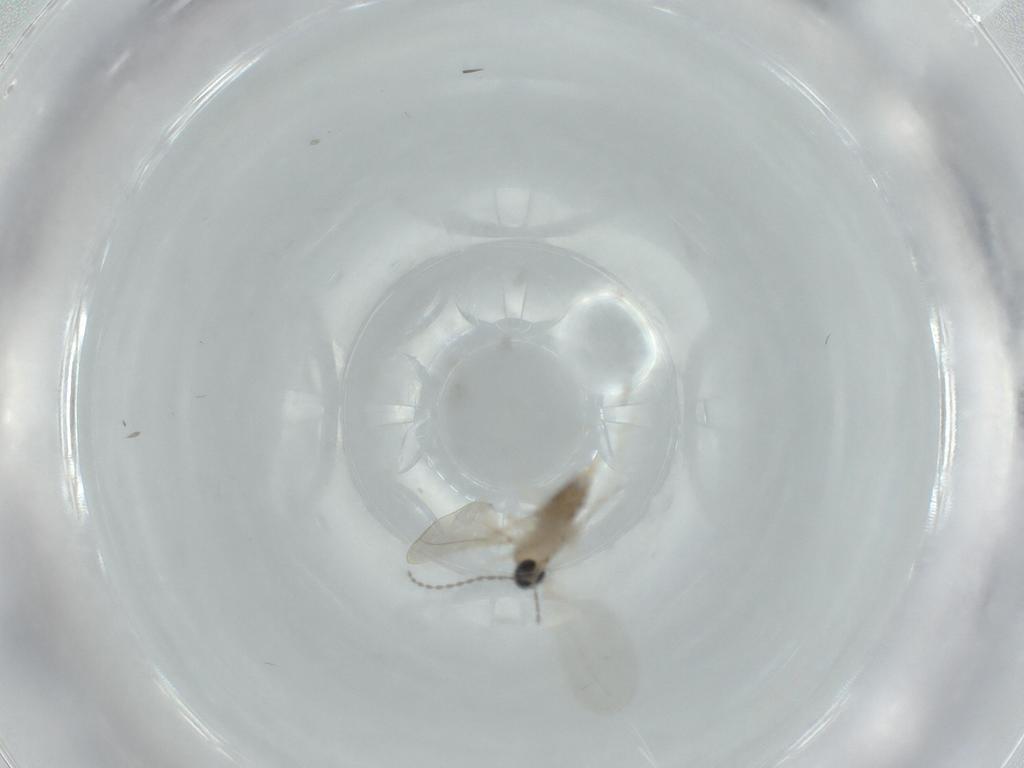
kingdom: Animalia
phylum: Arthropoda
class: Insecta
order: Diptera
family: Cecidomyiidae
